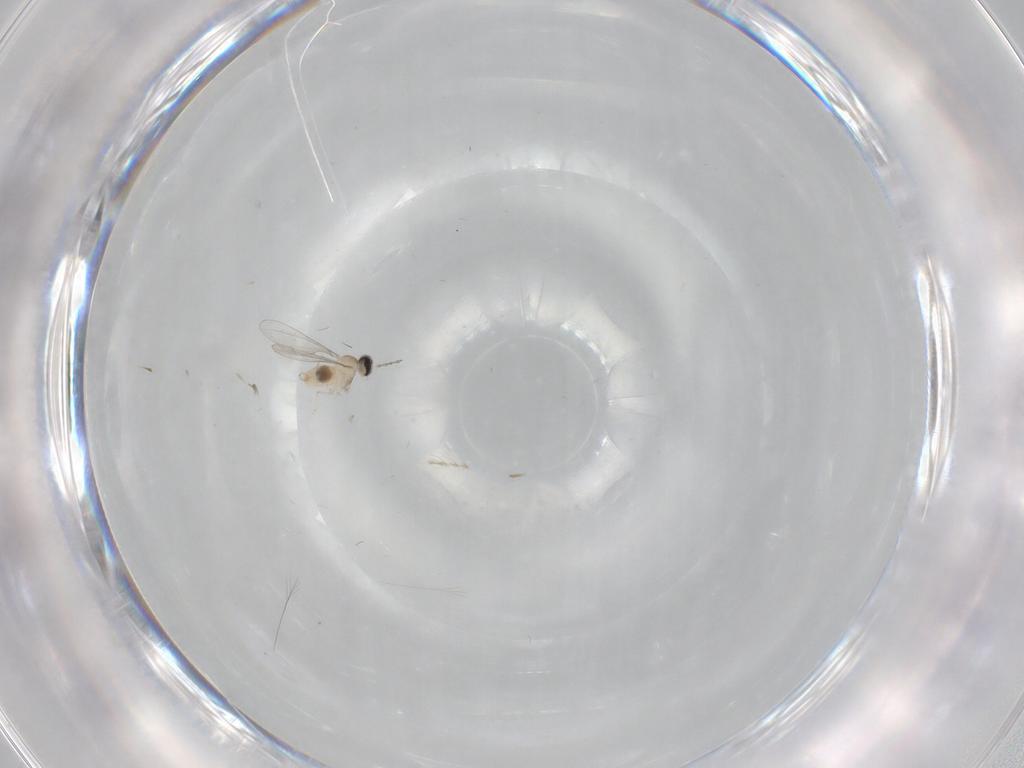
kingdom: Animalia
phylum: Arthropoda
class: Insecta
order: Diptera
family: Cecidomyiidae
